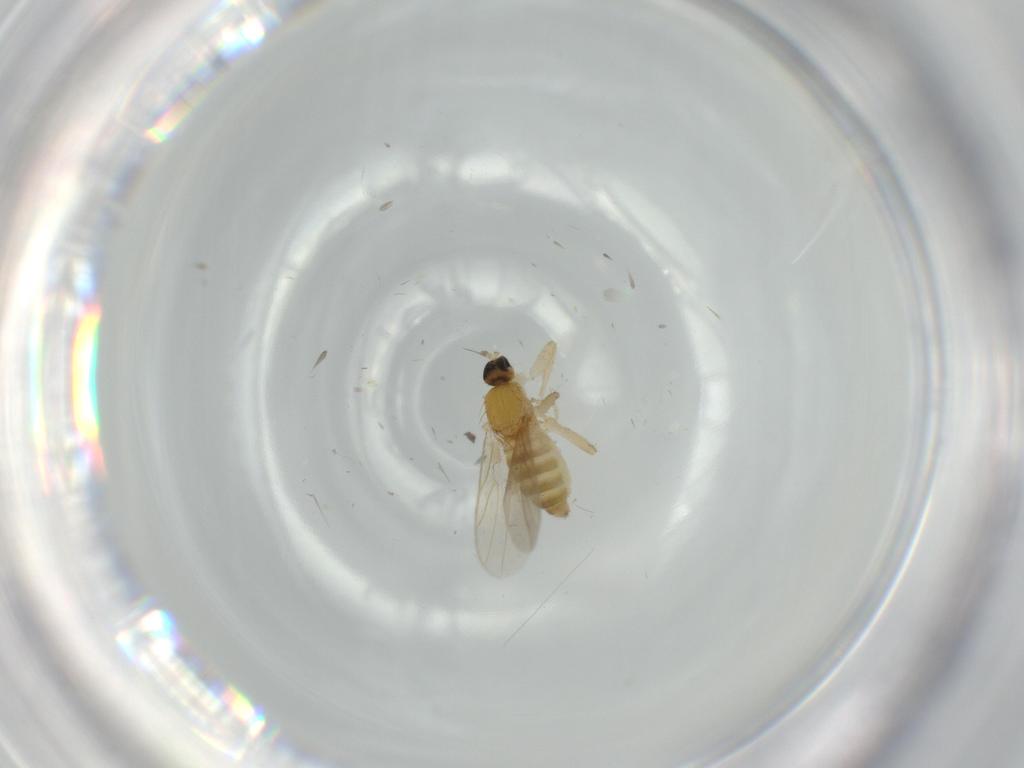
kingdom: Animalia
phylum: Arthropoda
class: Insecta
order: Diptera
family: Hybotidae
